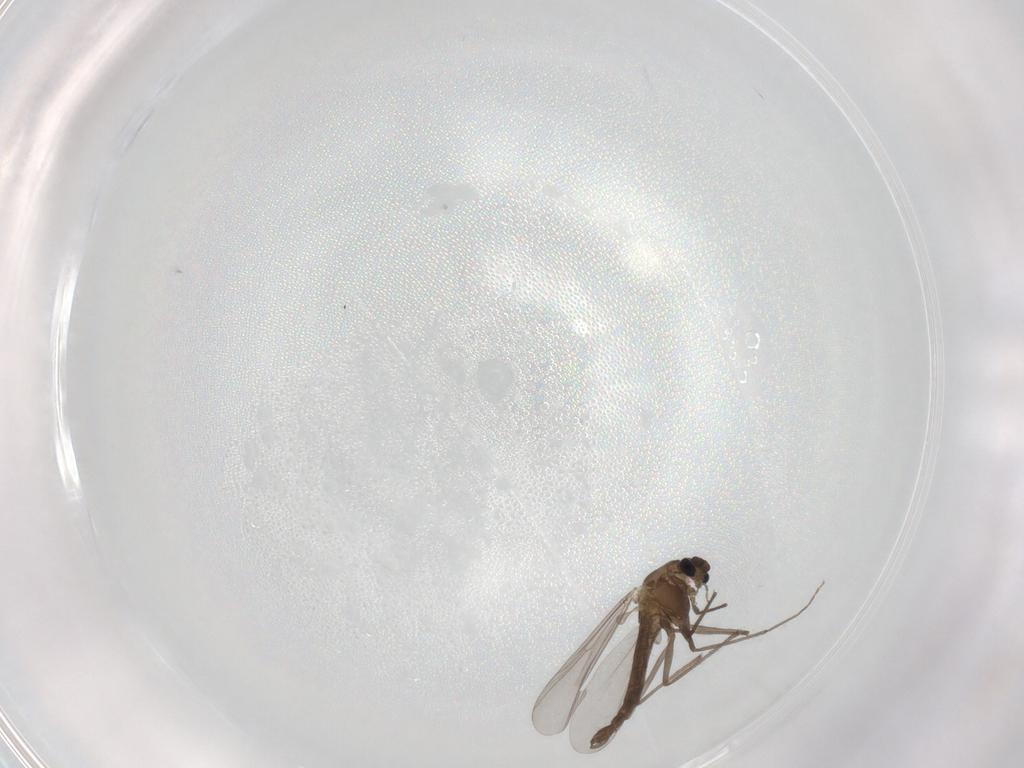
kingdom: Animalia
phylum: Arthropoda
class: Insecta
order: Diptera
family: Chironomidae
